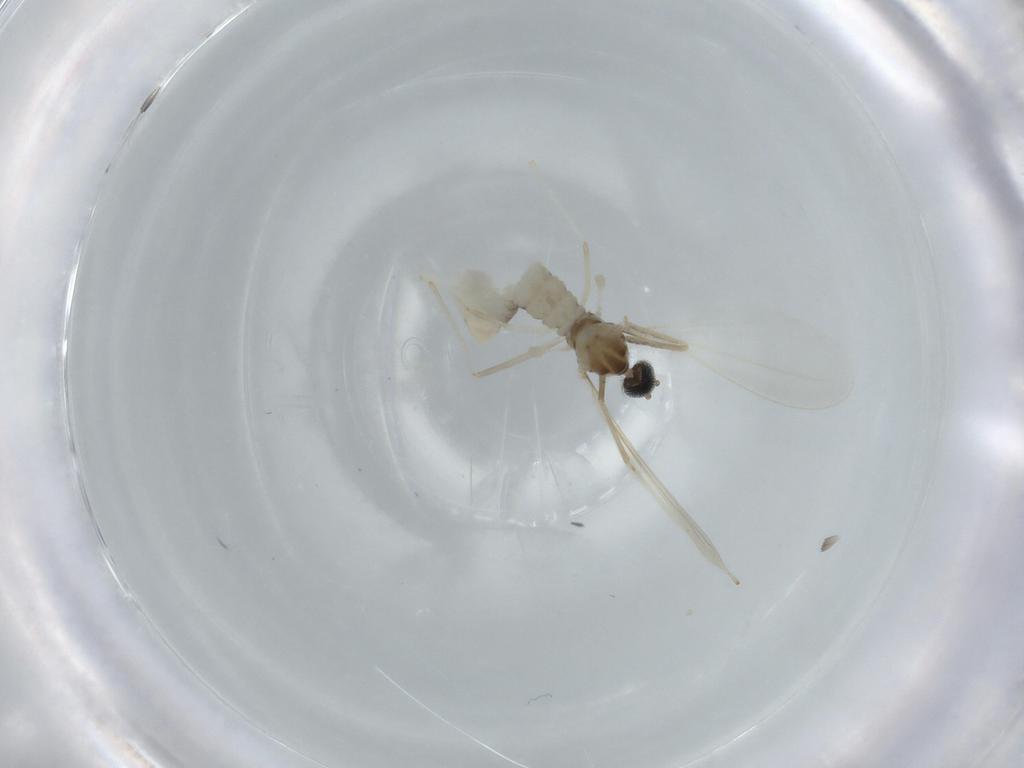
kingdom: Animalia
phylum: Arthropoda
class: Insecta
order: Diptera
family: Cecidomyiidae
